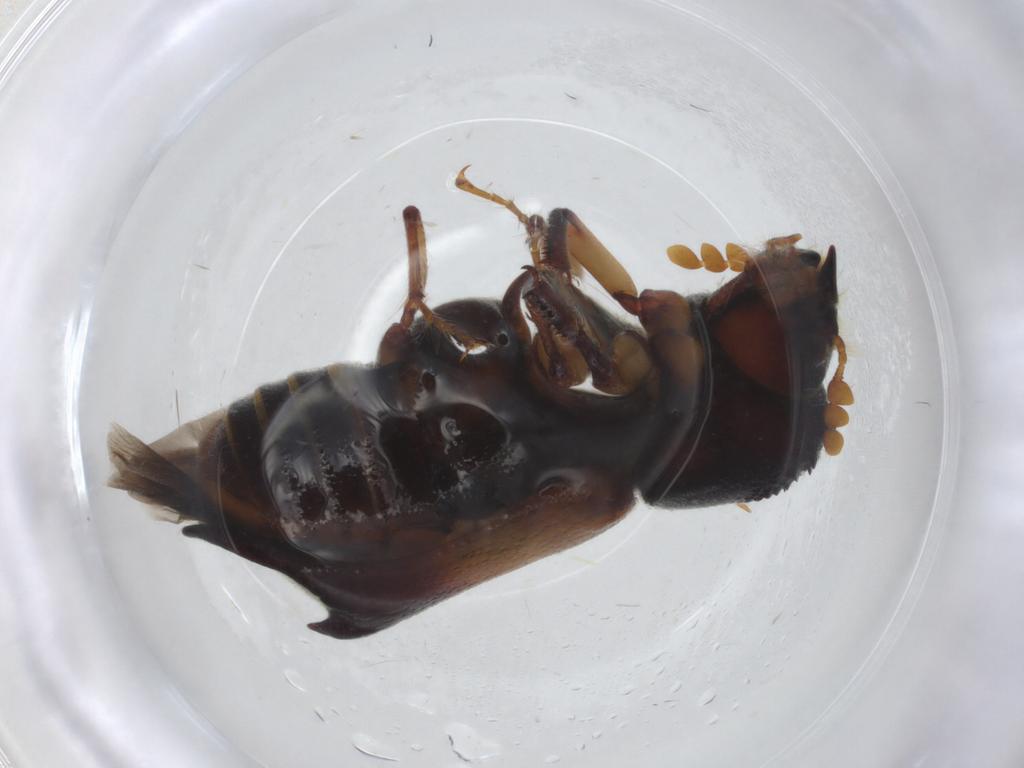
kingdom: Animalia
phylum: Arthropoda
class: Insecta
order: Coleoptera
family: Bostrichidae
